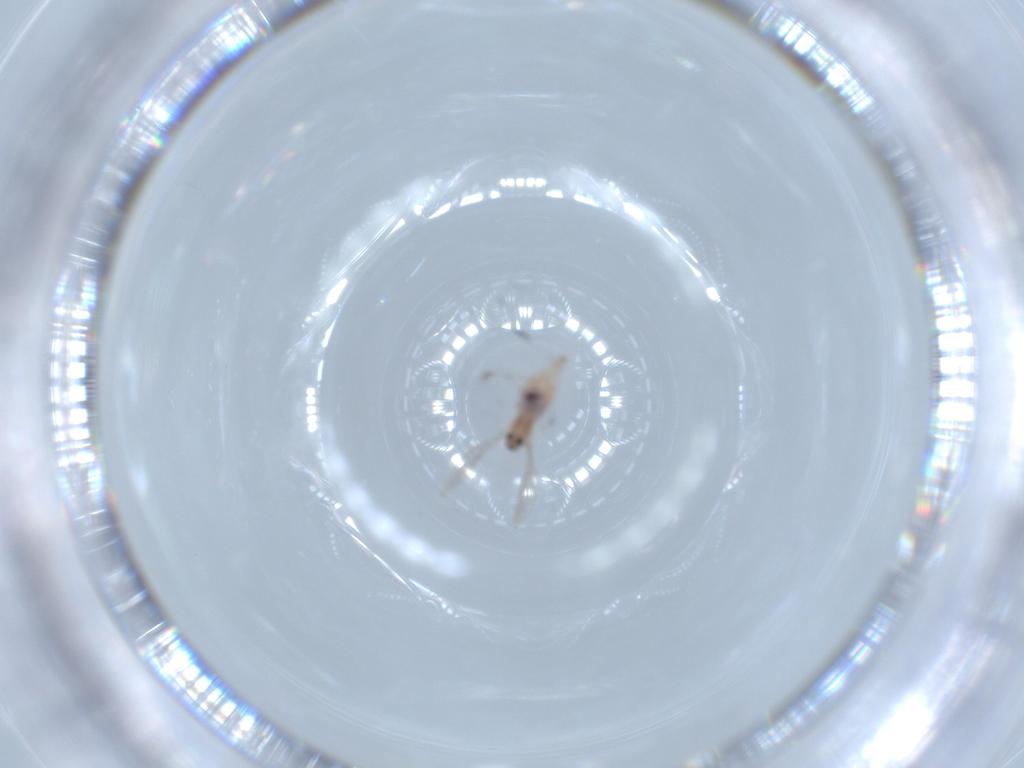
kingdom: Animalia
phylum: Arthropoda
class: Insecta
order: Diptera
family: Cecidomyiidae
